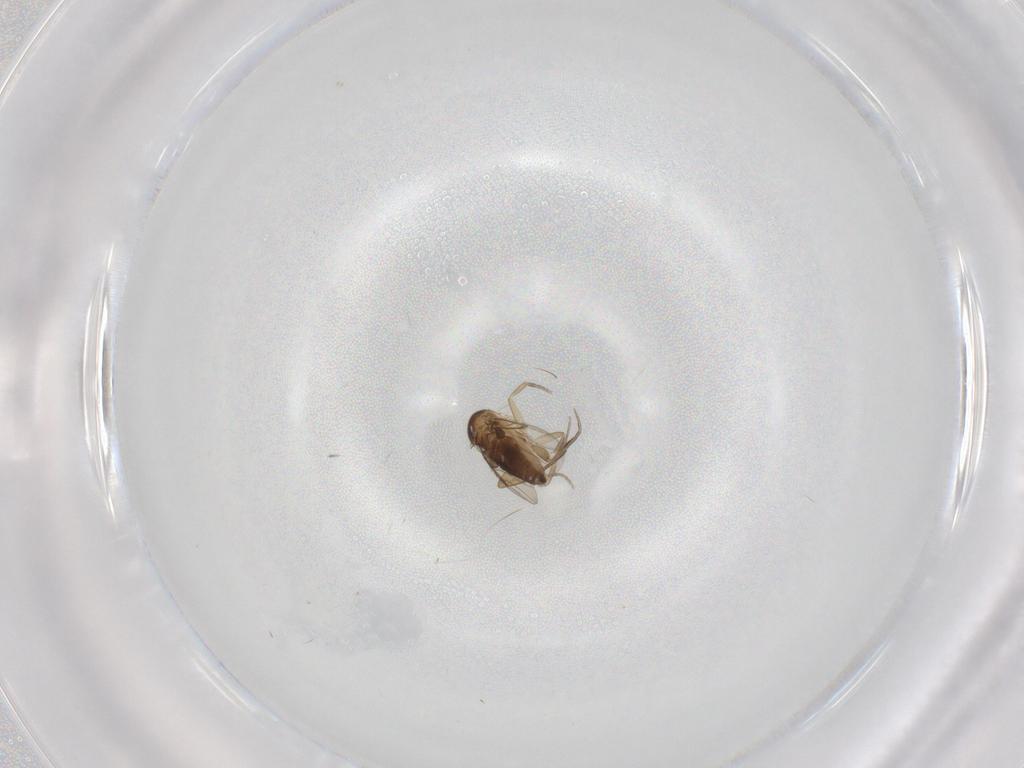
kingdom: Animalia
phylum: Arthropoda
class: Insecta
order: Diptera
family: Phoridae
